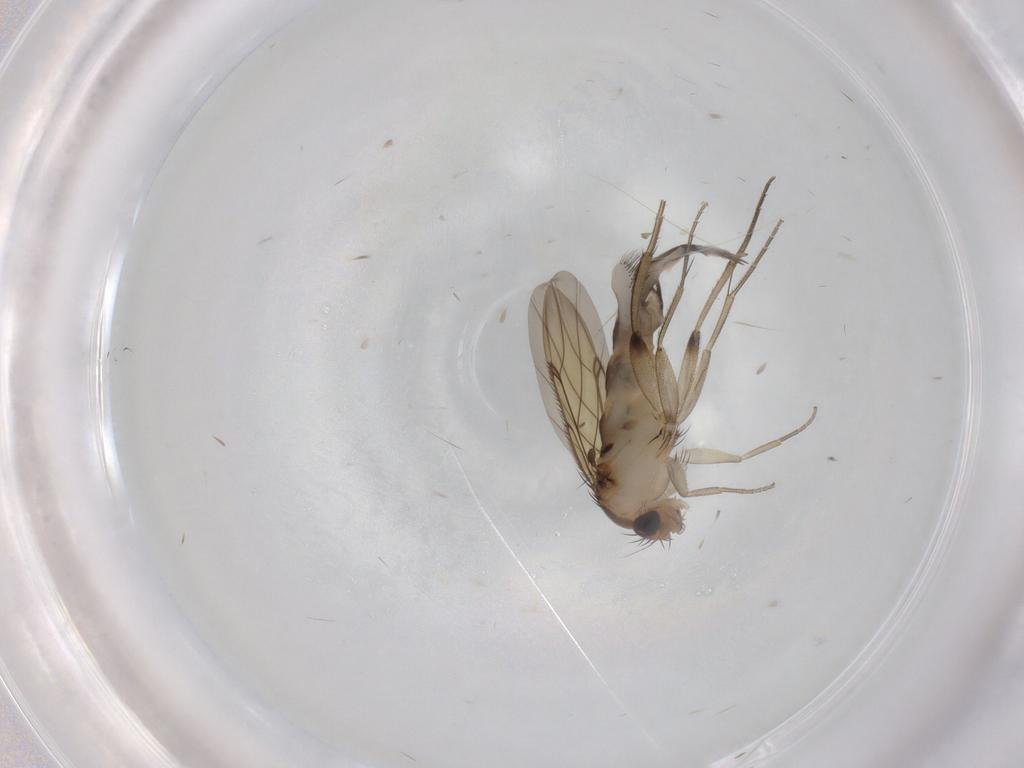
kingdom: Animalia
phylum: Arthropoda
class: Insecta
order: Diptera
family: Phoridae
